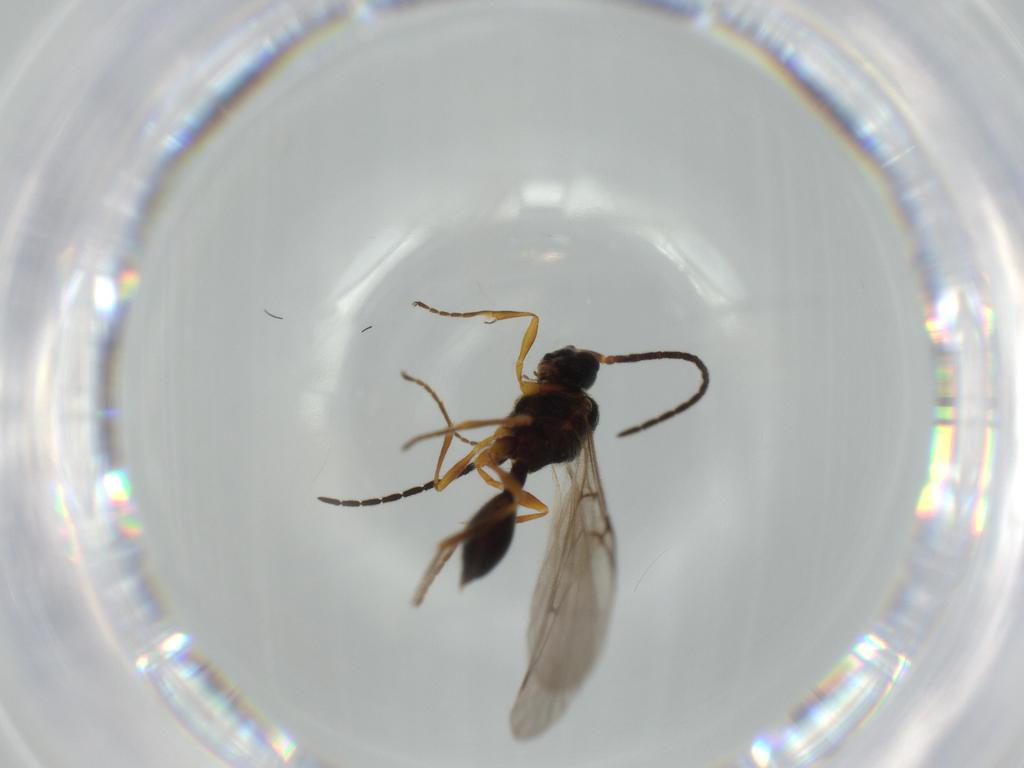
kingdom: Animalia
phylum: Arthropoda
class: Insecta
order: Hymenoptera
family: Diapriidae
